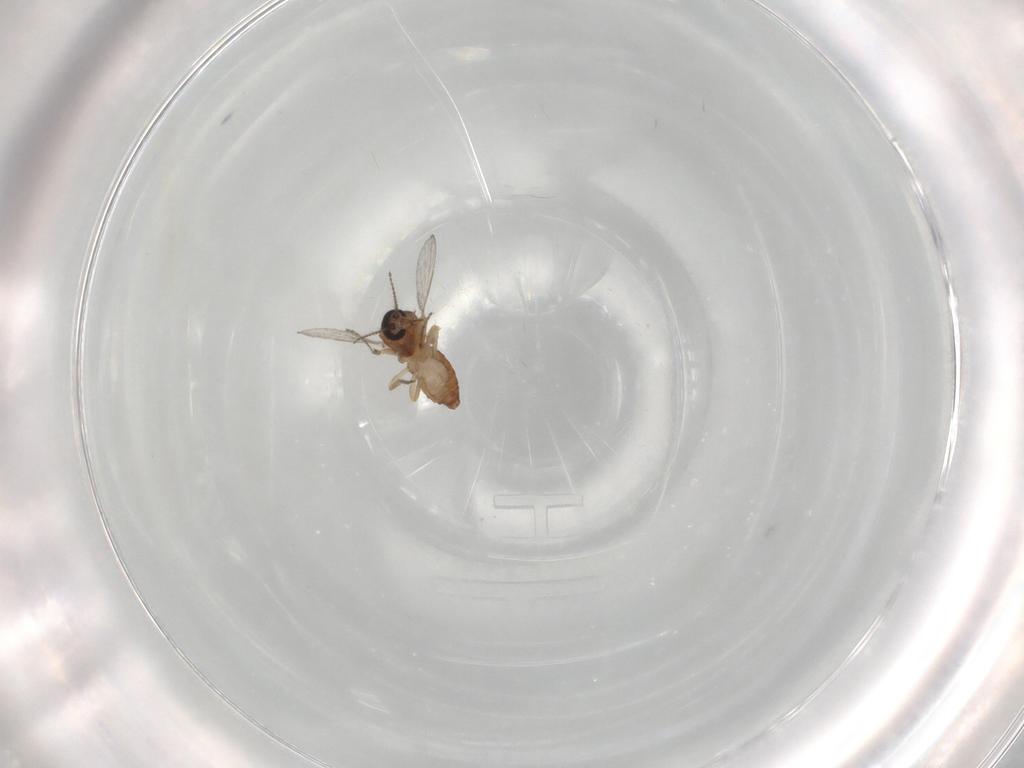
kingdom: Animalia
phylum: Arthropoda
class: Insecta
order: Diptera
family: Ceratopogonidae
